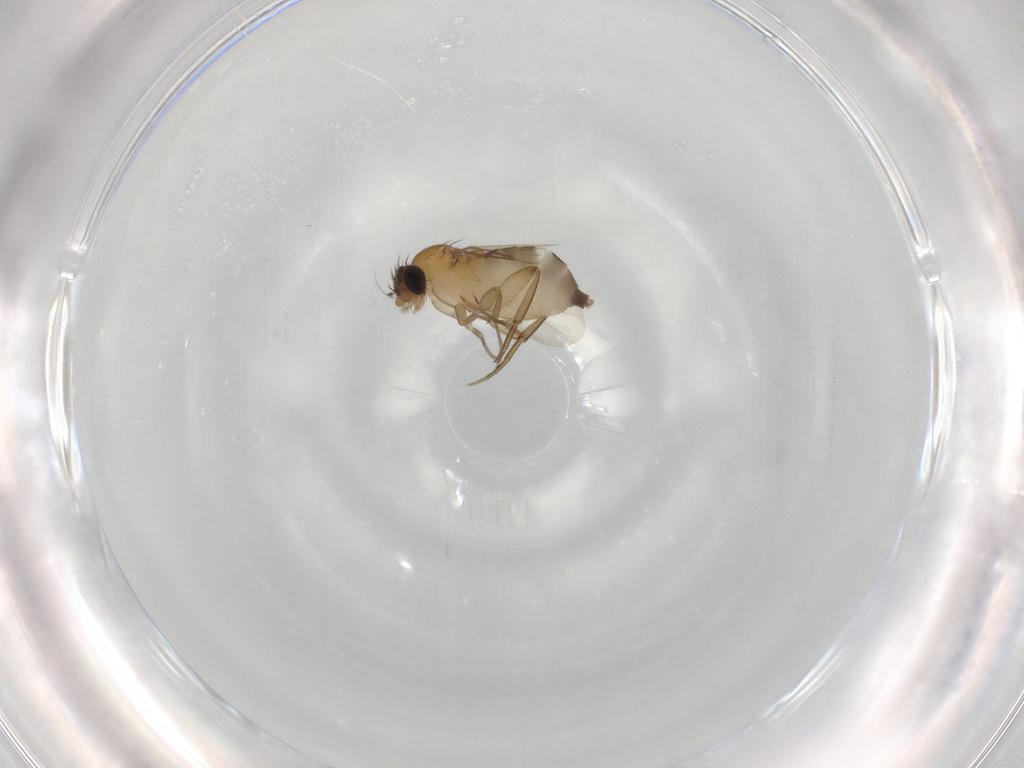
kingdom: Animalia
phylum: Arthropoda
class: Insecta
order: Diptera
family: Phoridae
